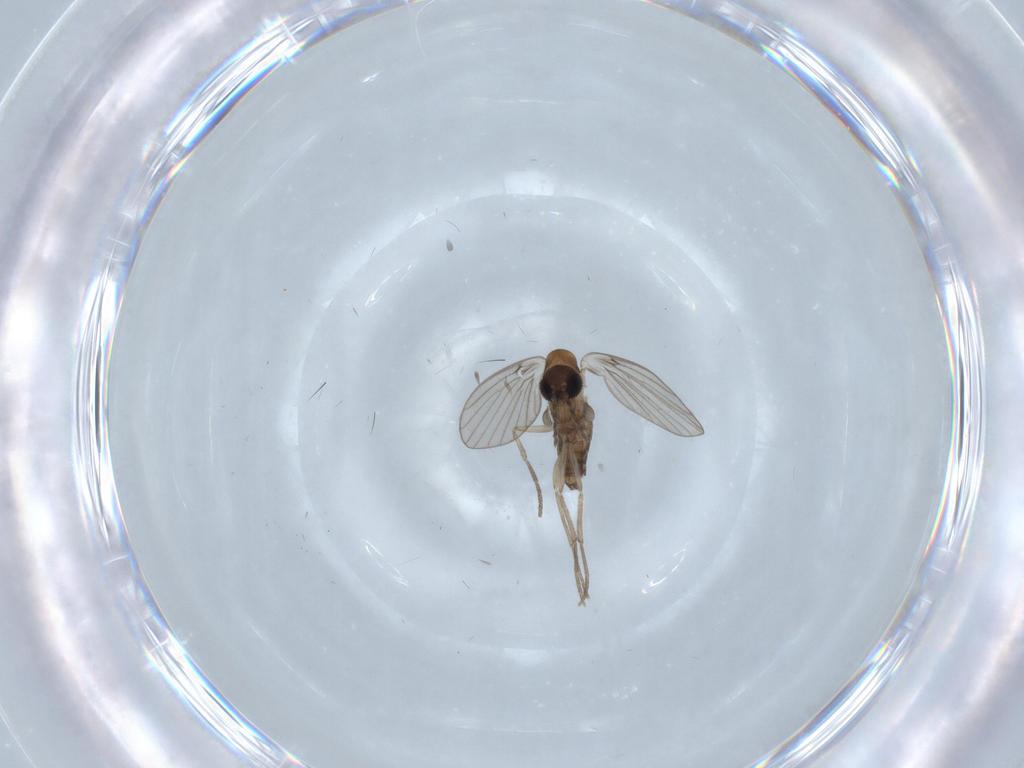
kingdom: Animalia
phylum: Arthropoda
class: Insecta
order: Diptera
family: Psychodidae
